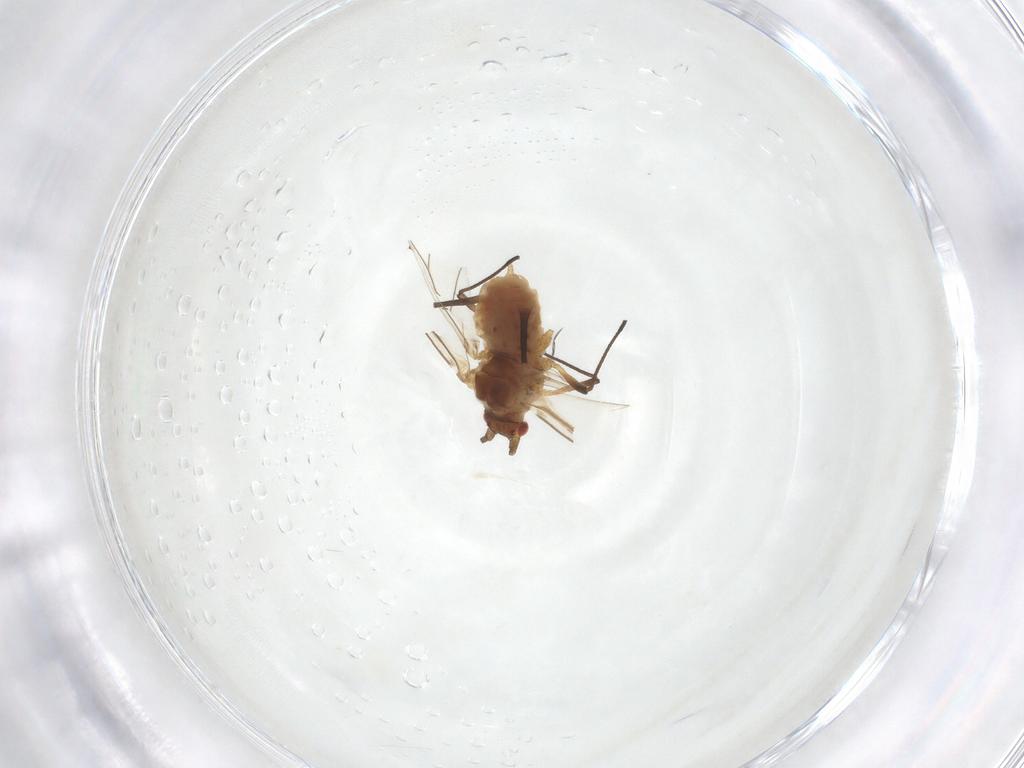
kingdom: Animalia
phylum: Arthropoda
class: Insecta
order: Hemiptera
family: Aphididae
